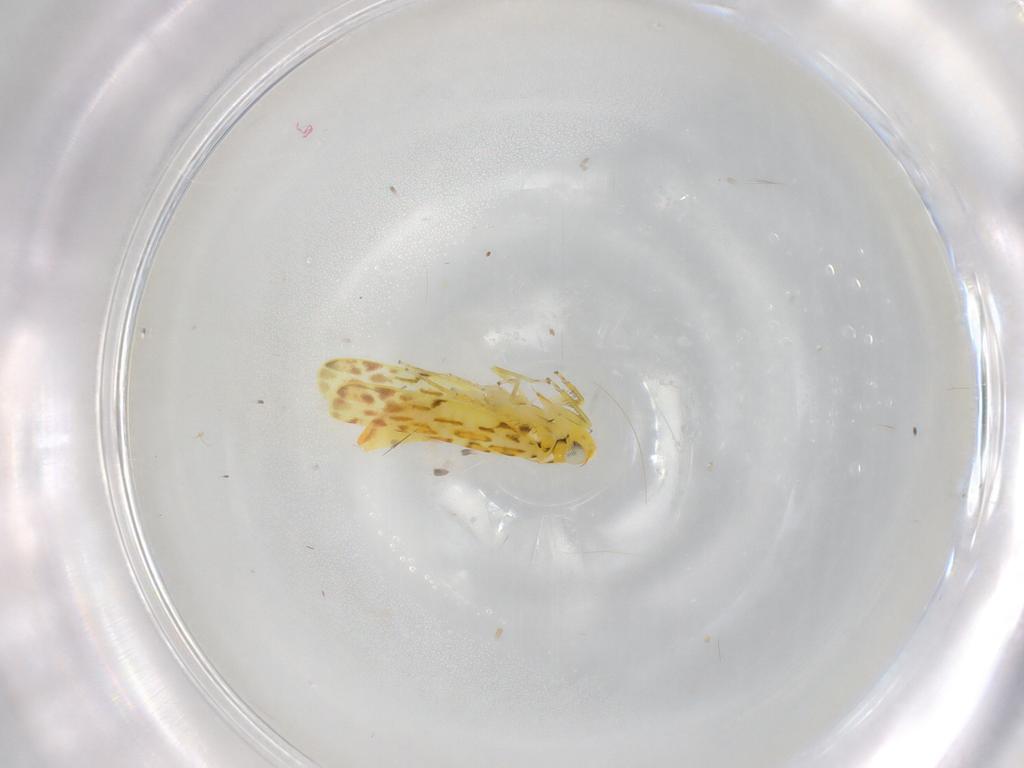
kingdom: Animalia
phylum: Arthropoda
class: Insecta
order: Hemiptera
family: Cicadellidae
